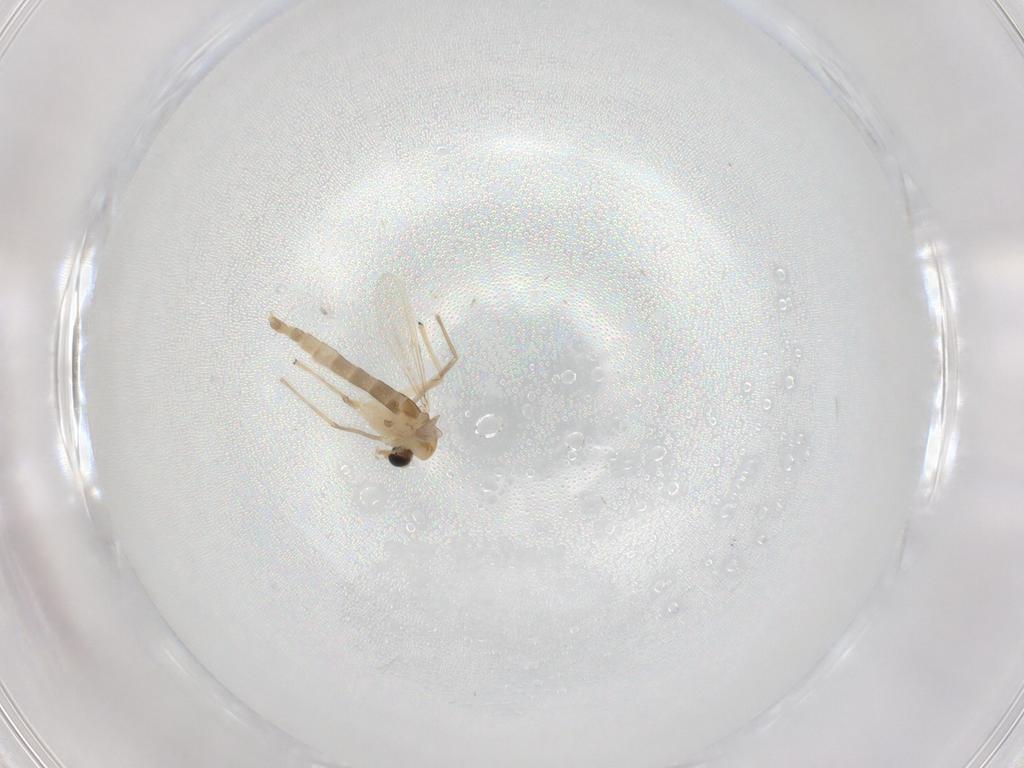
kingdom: Animalia
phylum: Arthropoda
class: Insecta
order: Diptera
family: Chironomidae
